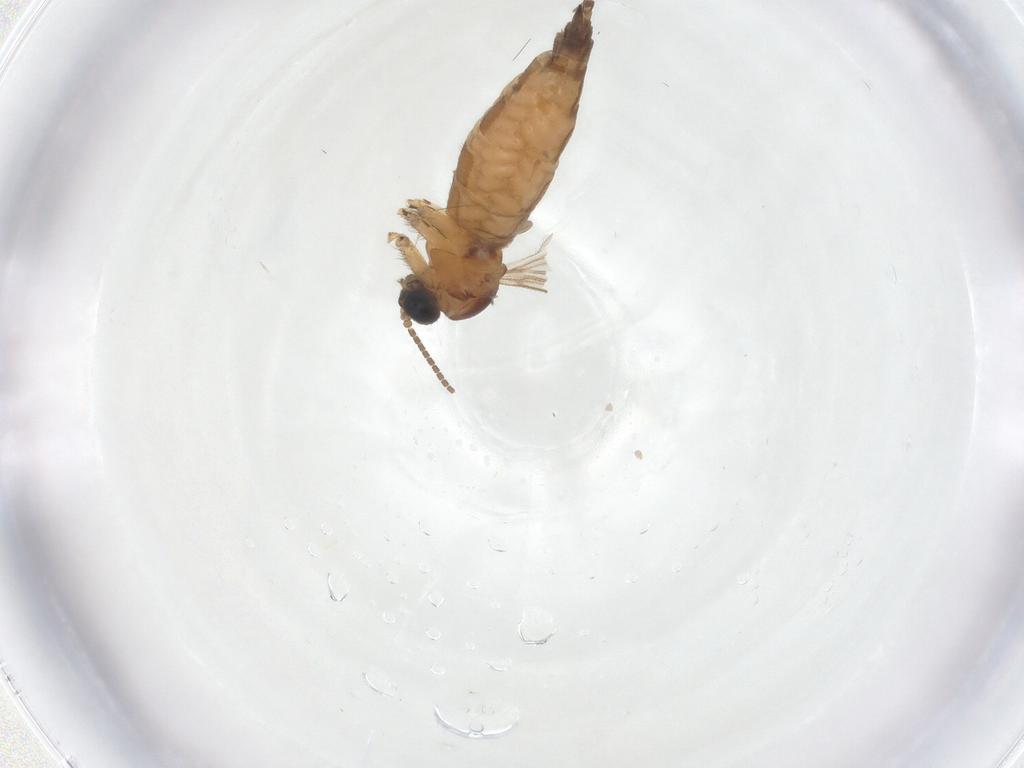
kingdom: Animalia
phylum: Arthropoda
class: Insecta
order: Diptera
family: Sciaridae
